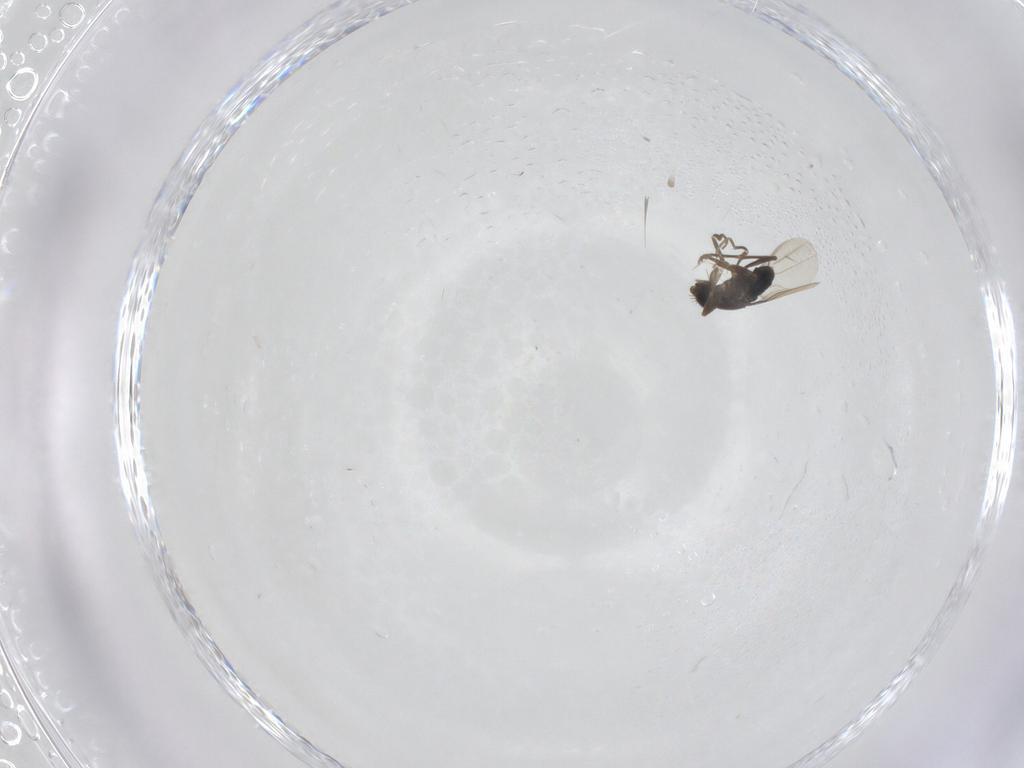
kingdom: Animalia
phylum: Arthropoda
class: Insecta
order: Diptera
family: Phoridae
